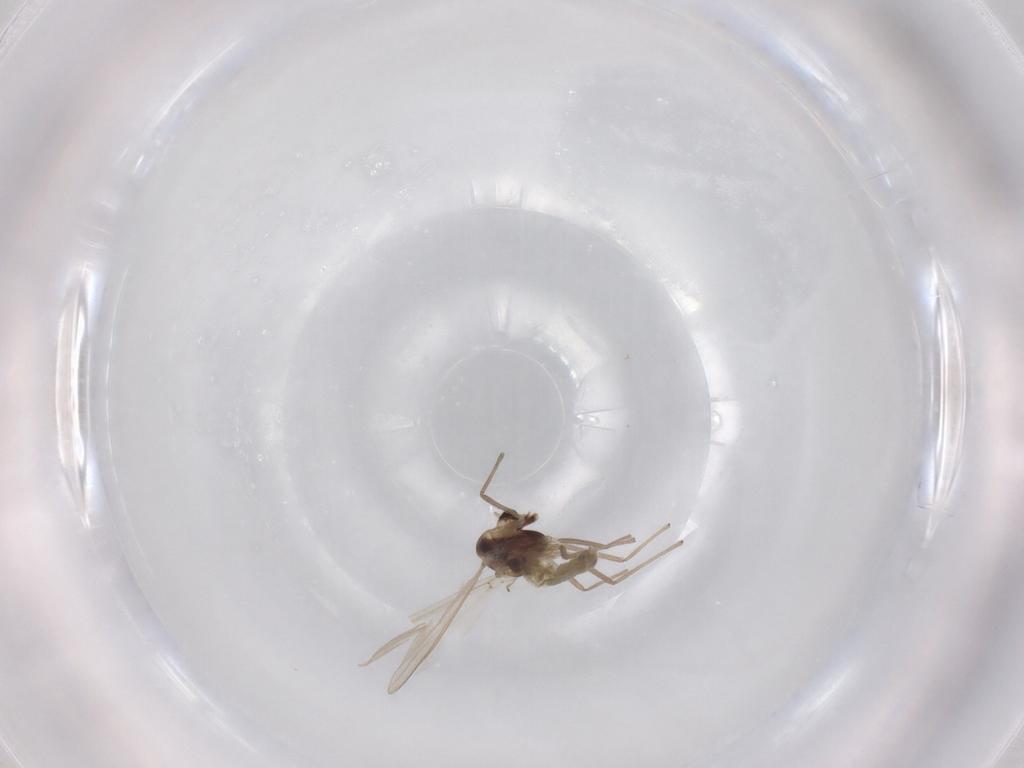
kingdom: Animalia
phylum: Arthropoda
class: Insecta
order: Diptera
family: Chironomidae
